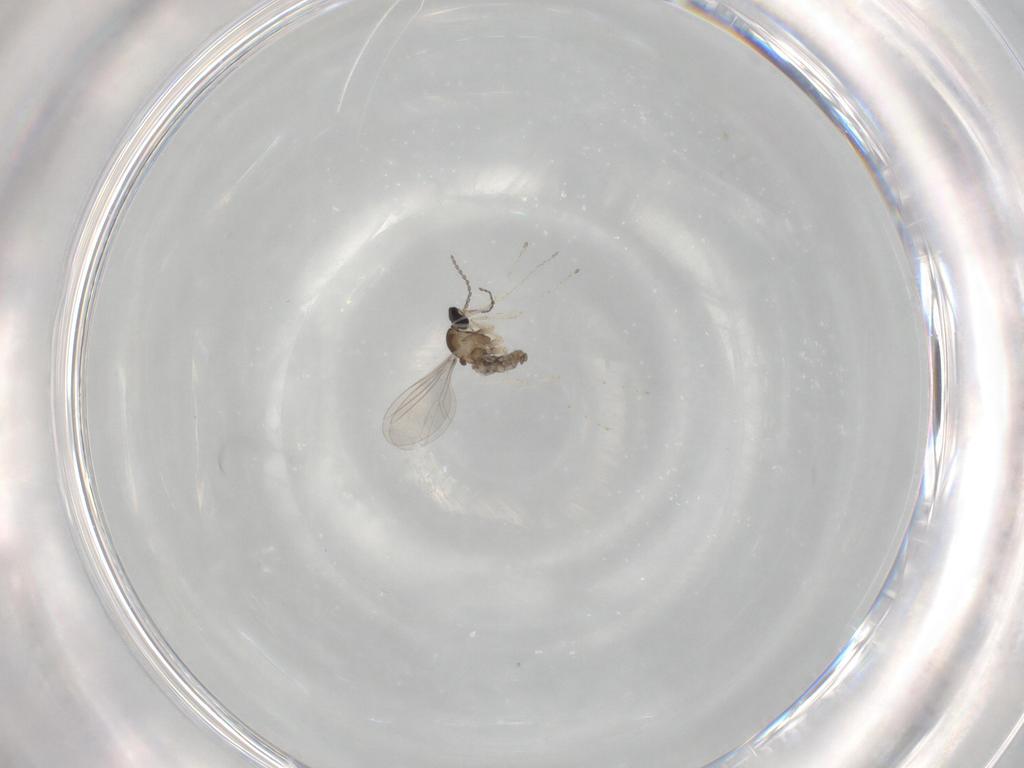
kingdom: Animalia
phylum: Arthropoda
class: Insecta
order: Diptera
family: Cecidomyiidae
